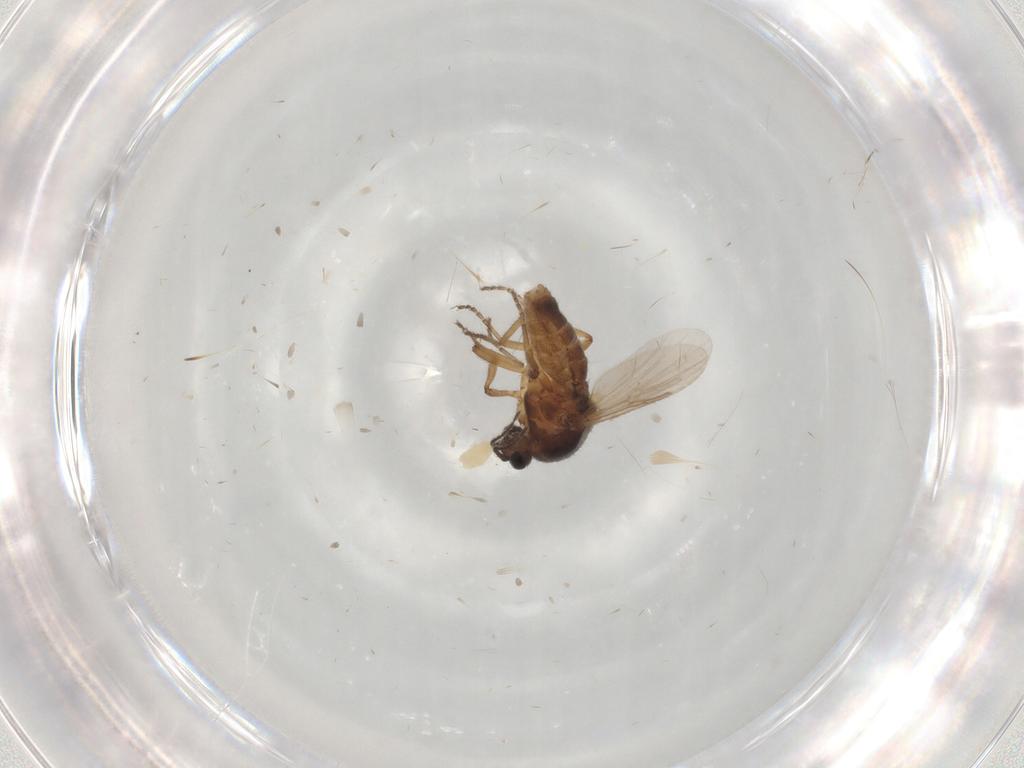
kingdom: Animalia
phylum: Arthropoda
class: Insecta
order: Diptera
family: Ceratopogonidae
